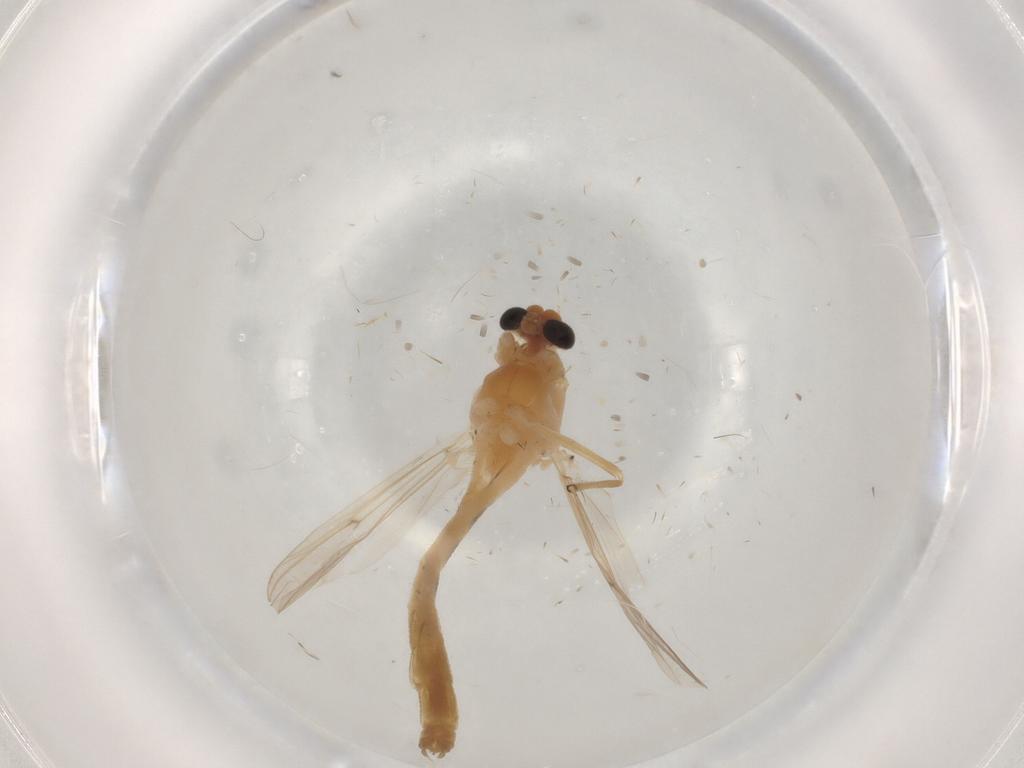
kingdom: Animalia
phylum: Arthropoda
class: Insecta
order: Diptera
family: Chironomidae
